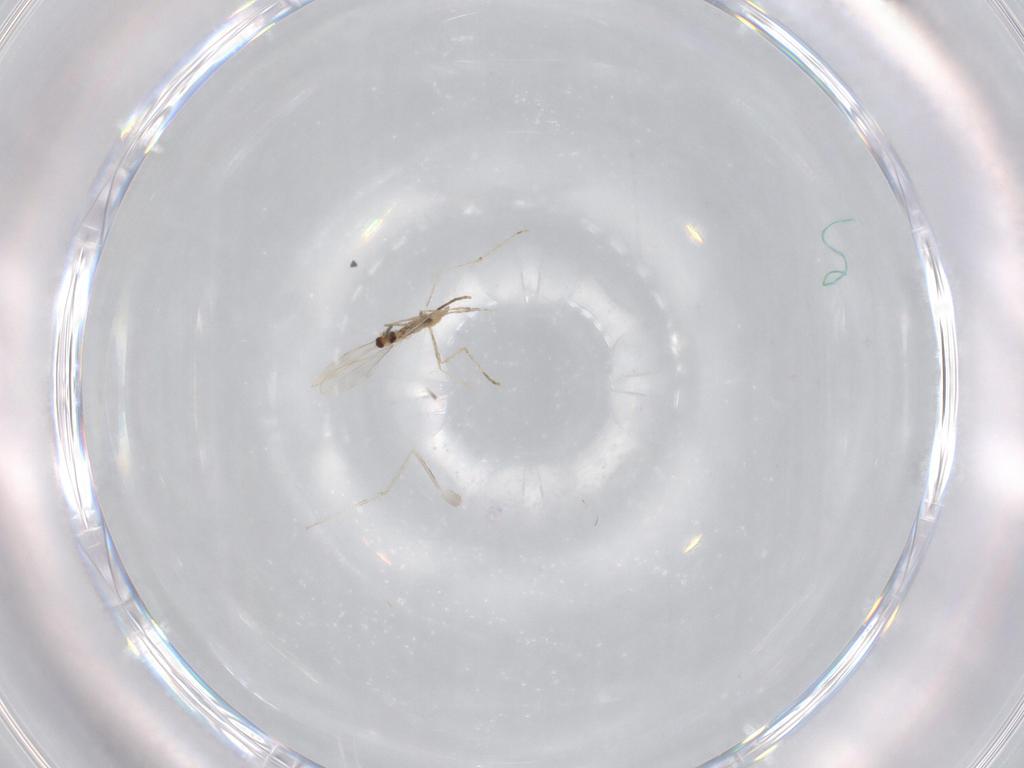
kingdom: Animalia
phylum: Arthropoda
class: Insecta
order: Diptera
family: Cecidomyiidae
